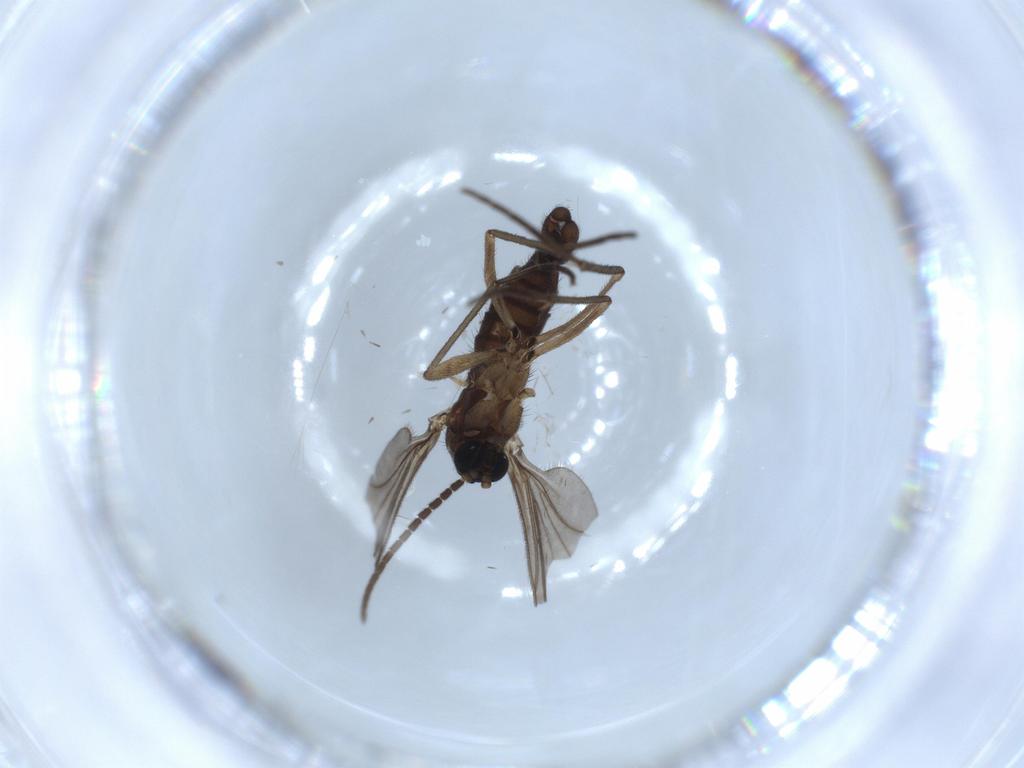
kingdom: Animalia
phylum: Arthropoda
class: Insecta
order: Diptera
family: Sciaridae
